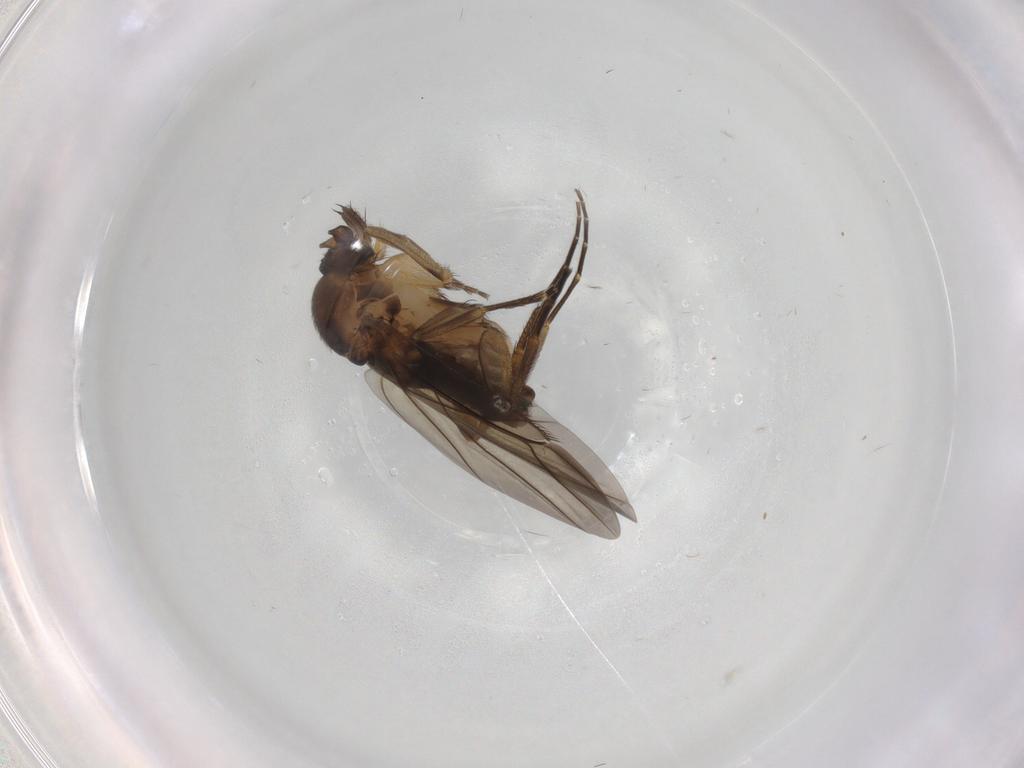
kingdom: Animalia
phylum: Arthropoda
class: Insecta
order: Diptera
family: Phoridae
